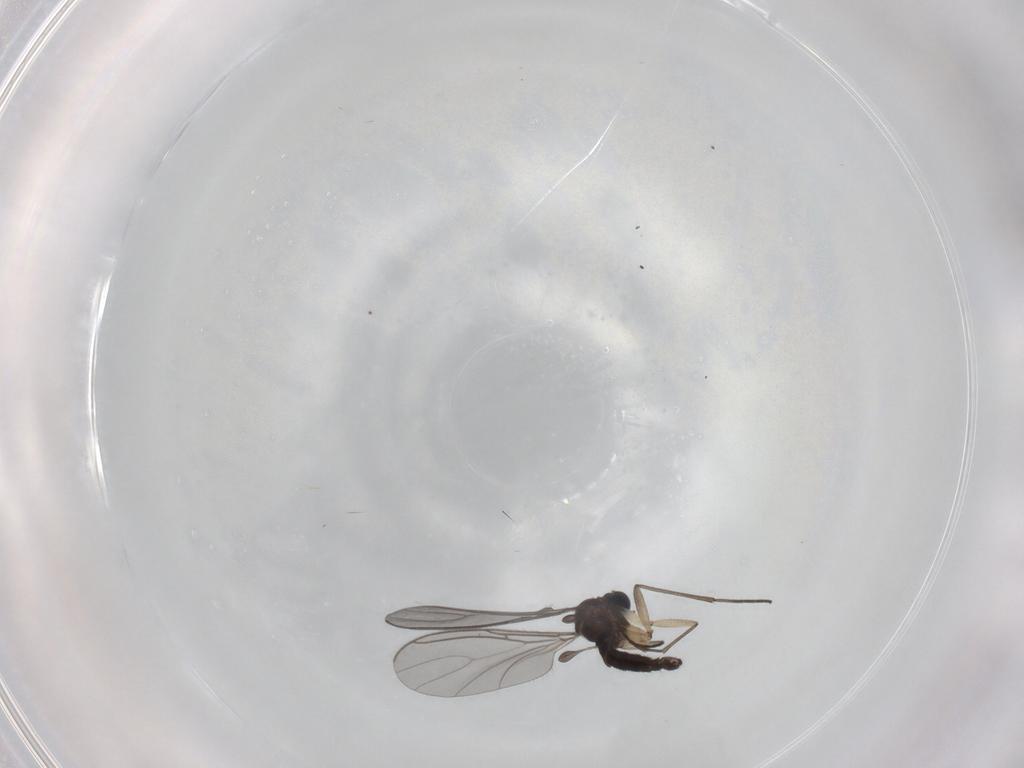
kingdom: Animalia
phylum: Arthropoda
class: Insecta
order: Diptera
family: Sciaridae
